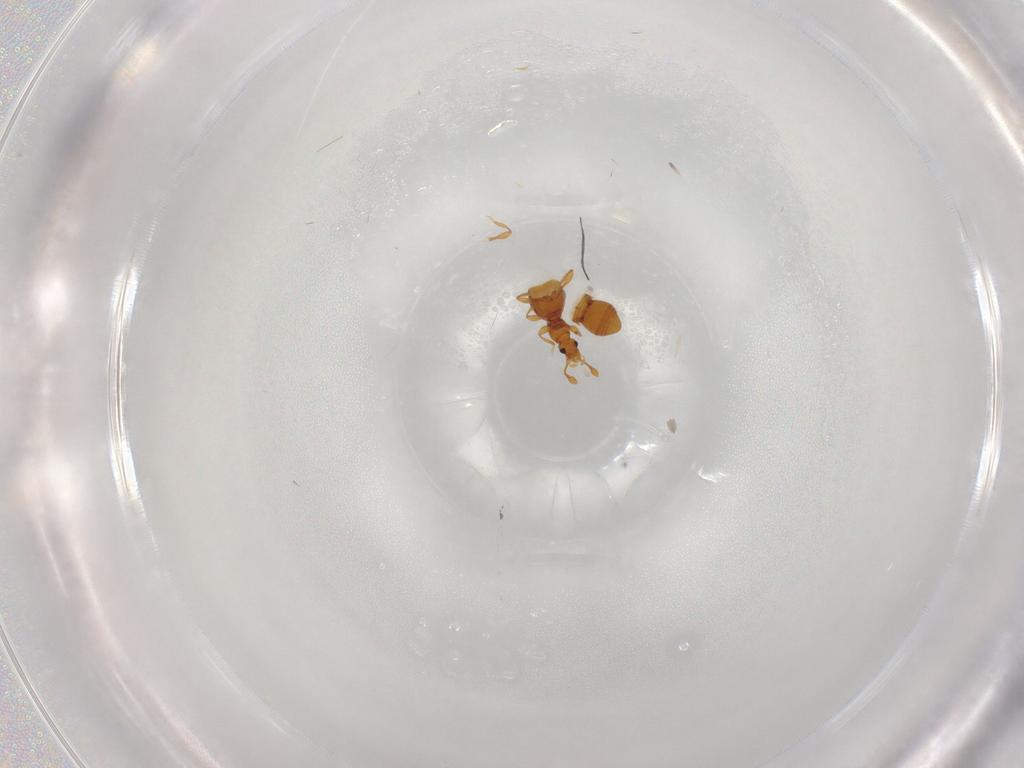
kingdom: Animalia
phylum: Arthropoda
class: Insecta
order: Coleoptera
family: Staphylinidae
